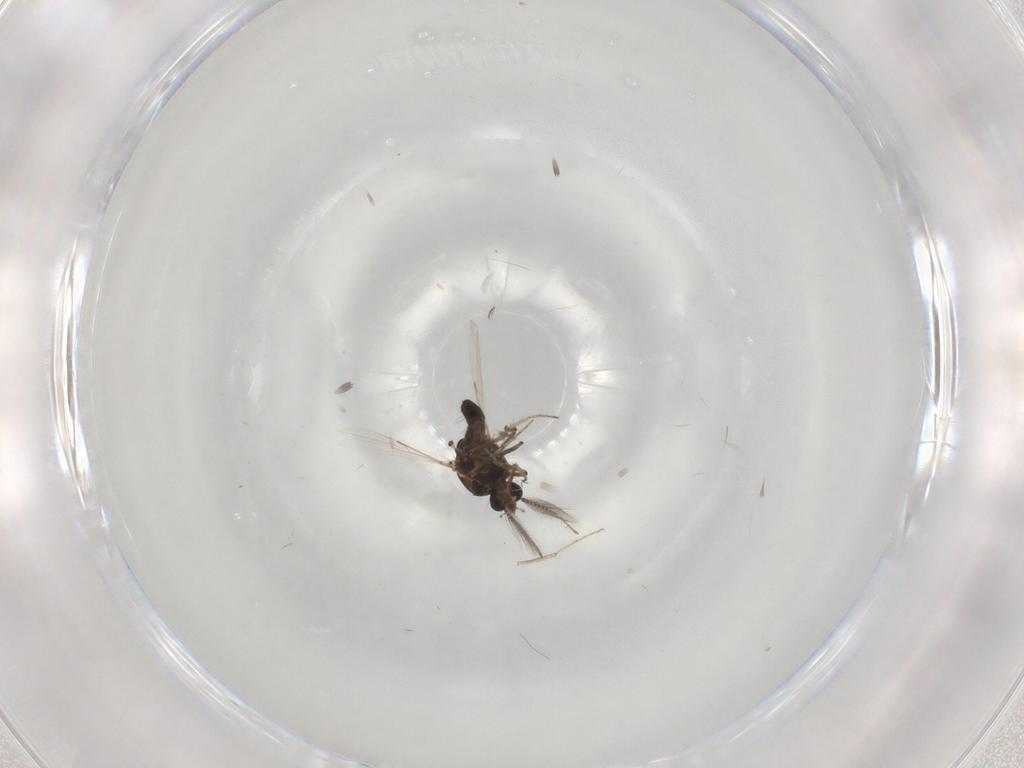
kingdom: Animalia
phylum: Arthropoda
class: Insecta
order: Diptera
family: Ceratopogonidae
